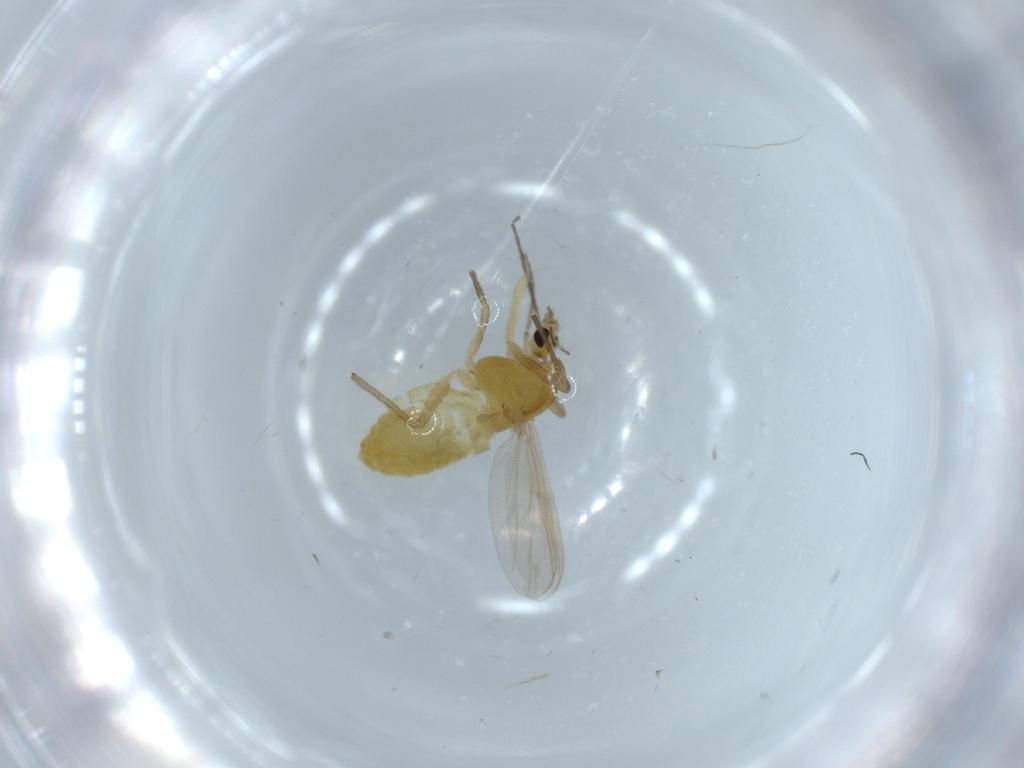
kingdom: Animalia
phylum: Arthropoda
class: Insecta
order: Diptera
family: Chironomidae
